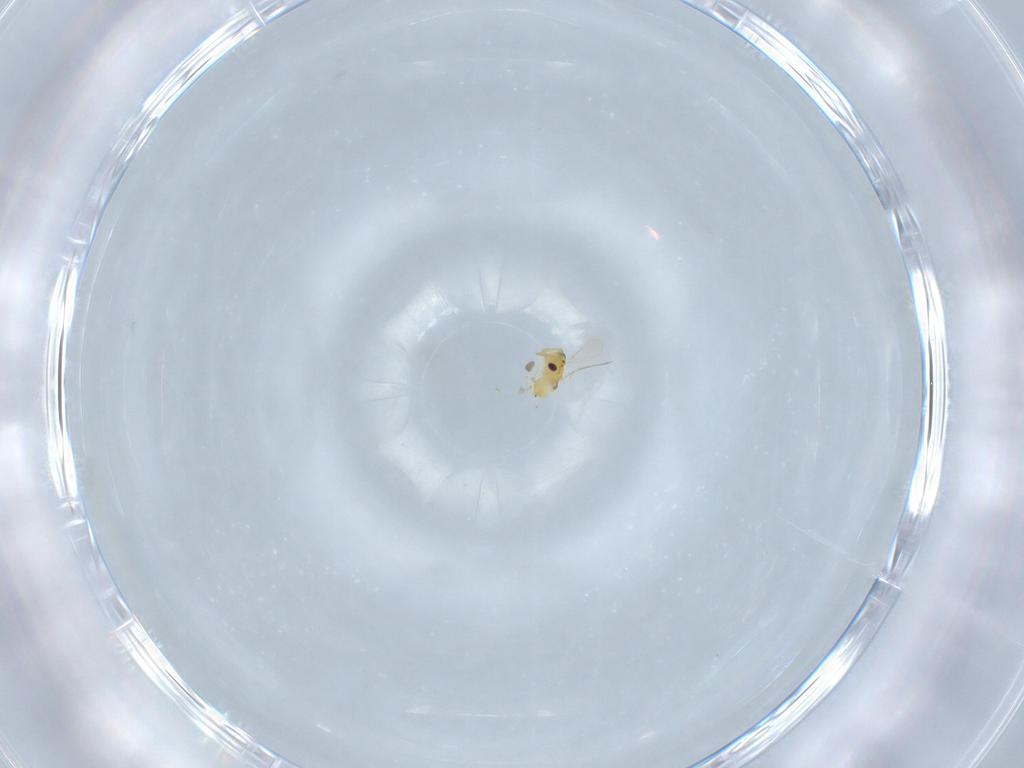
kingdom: Animalia
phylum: Arthropoda
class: Insecta
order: Hymenoptera
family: Aphelinidae
